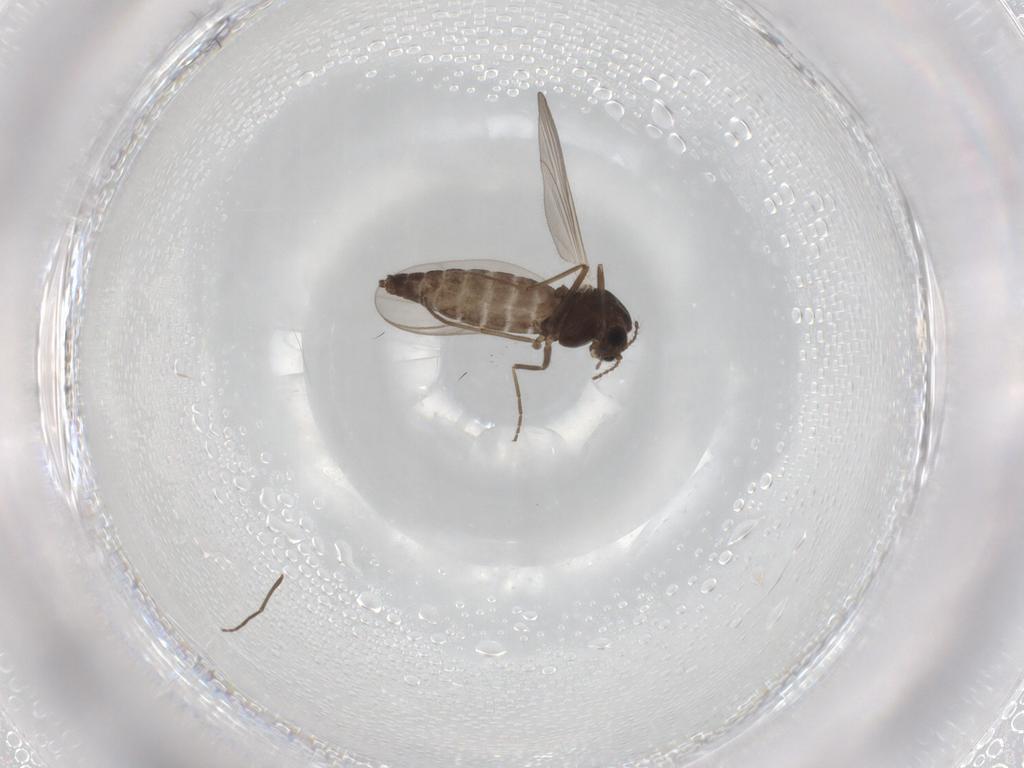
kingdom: Animalia
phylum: Arthropoda
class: Insecta
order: Diptera
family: Chironomidae
